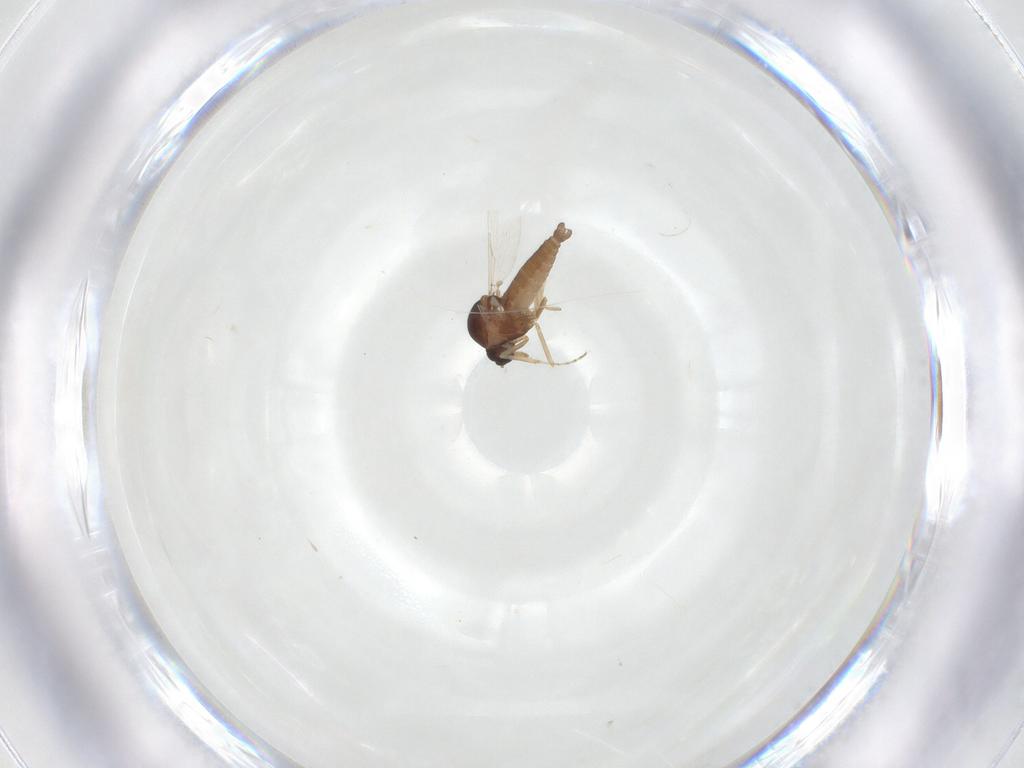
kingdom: Animalia
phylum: Arthropoda
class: Insecta
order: Diptera
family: Ceratopogonidae
